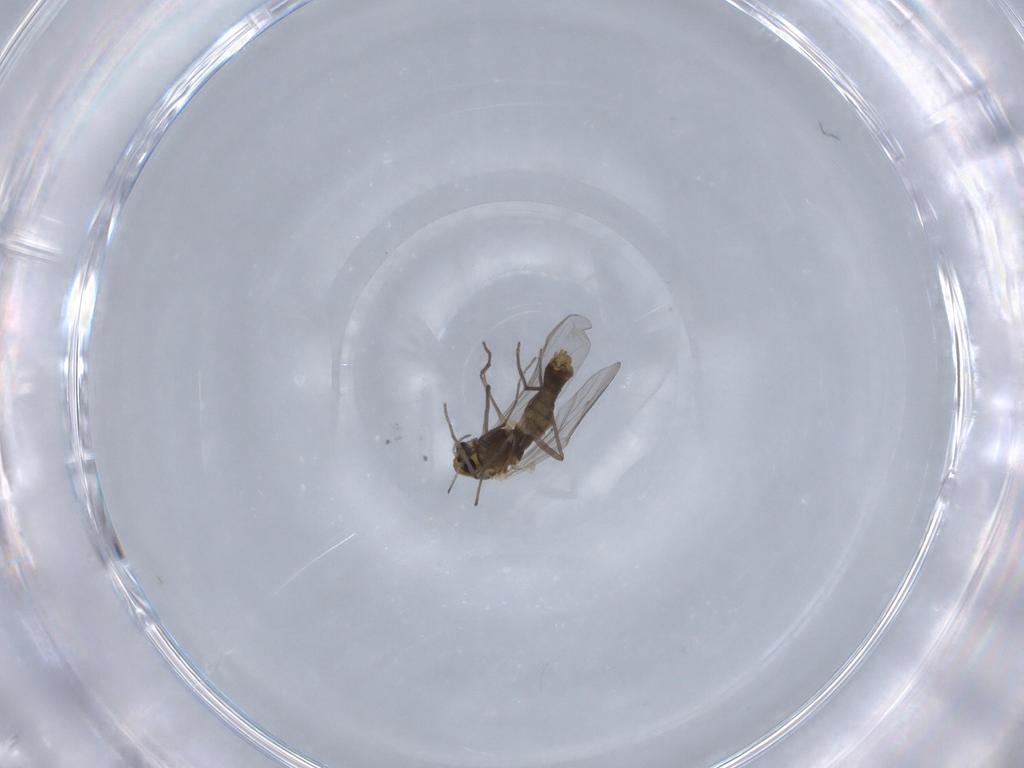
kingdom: Animalia
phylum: Arthropoda
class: Insecta
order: Diptera
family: Chironomidae
